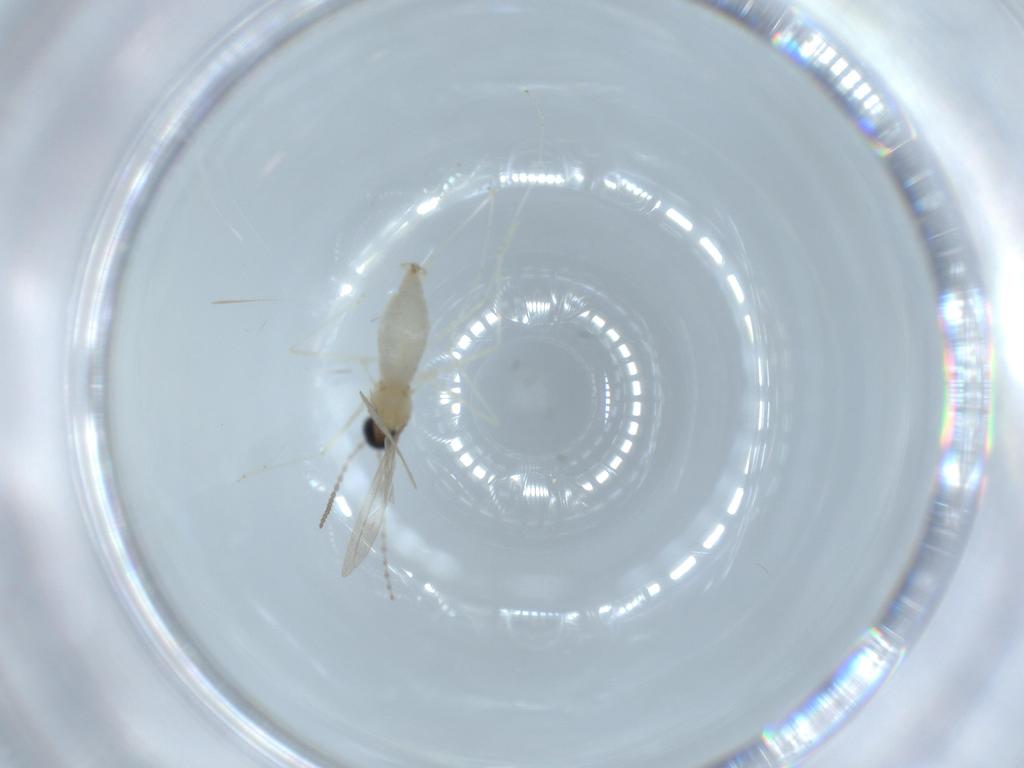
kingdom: Animalia
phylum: Arthropoda
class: Insecta
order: Diptera
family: Cecidomyiidae
